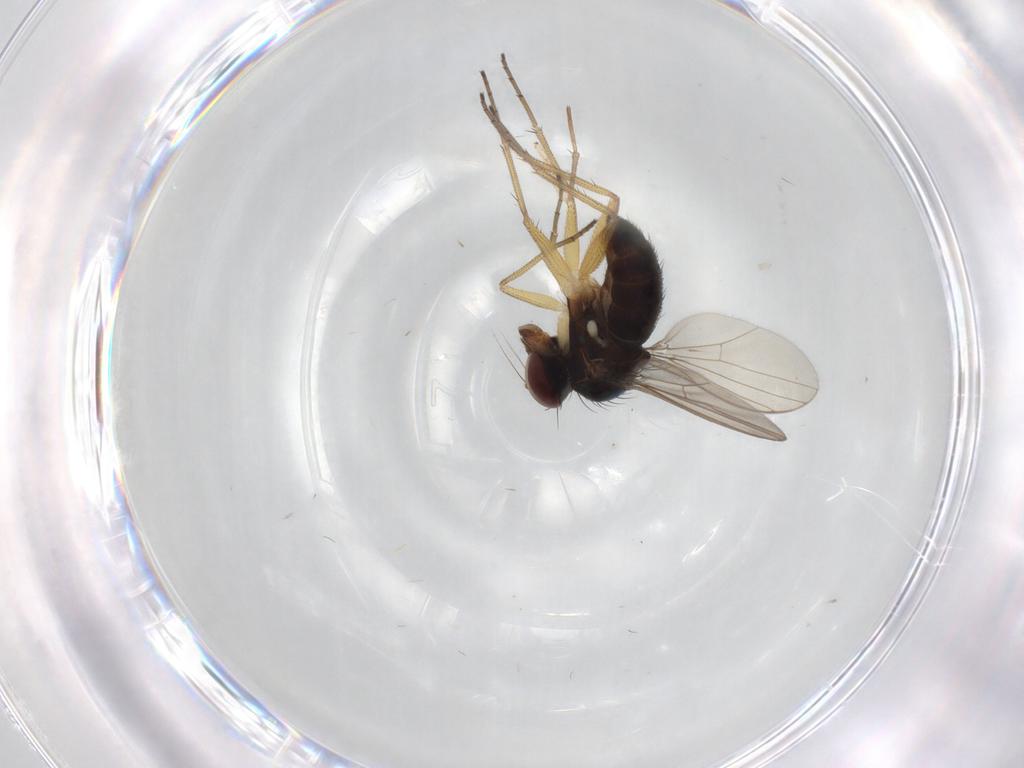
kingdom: Animalia
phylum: Arthropoda
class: Insecta
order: Diptera
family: Dolichopodidae
